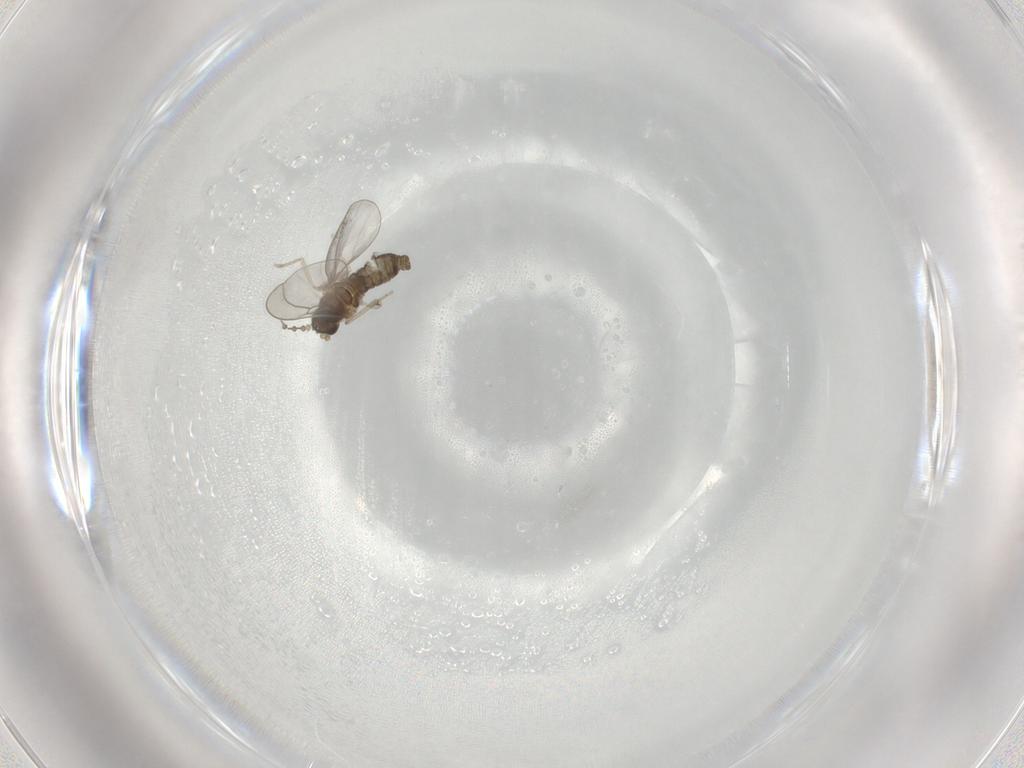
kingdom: Animalia
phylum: Arthropoda
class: Insecta
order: Diptera
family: Cecidomyiidae
